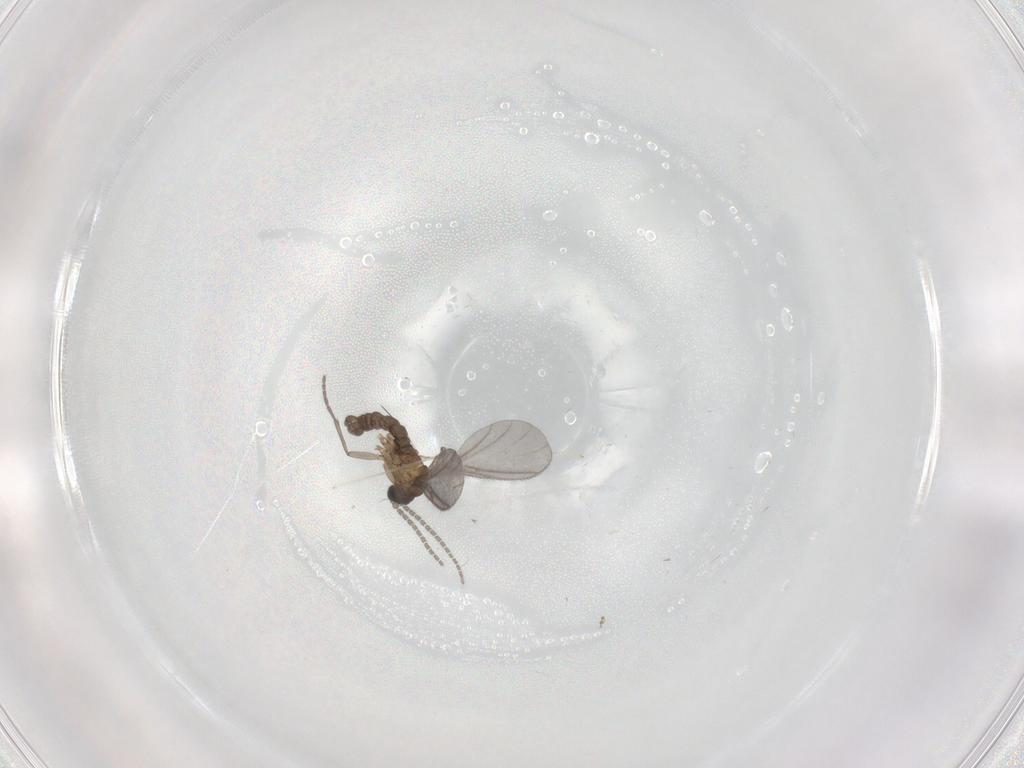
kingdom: Animalia
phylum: Arthropoda
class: Insecta
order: Diptera
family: Sciaridae
